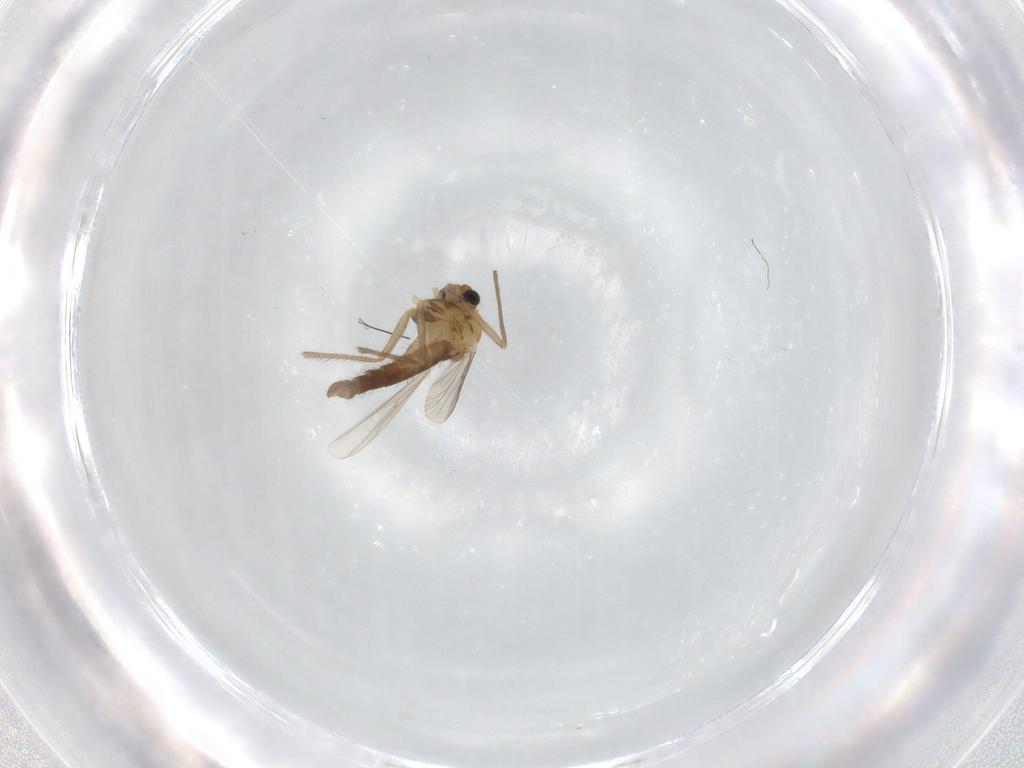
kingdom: Animalia
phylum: Arthropoda
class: Insecta
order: Diptera
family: Chironomidae
